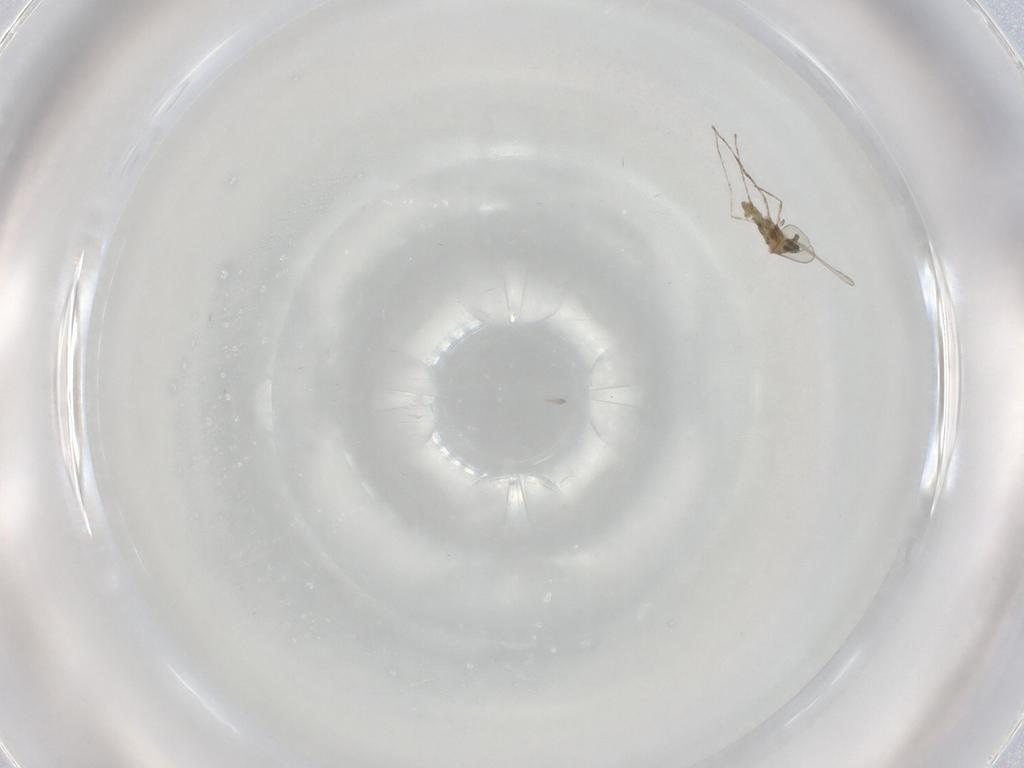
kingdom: Animalia
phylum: Arthropoda
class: Insecta
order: Diptera
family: Cecidomyiidae
